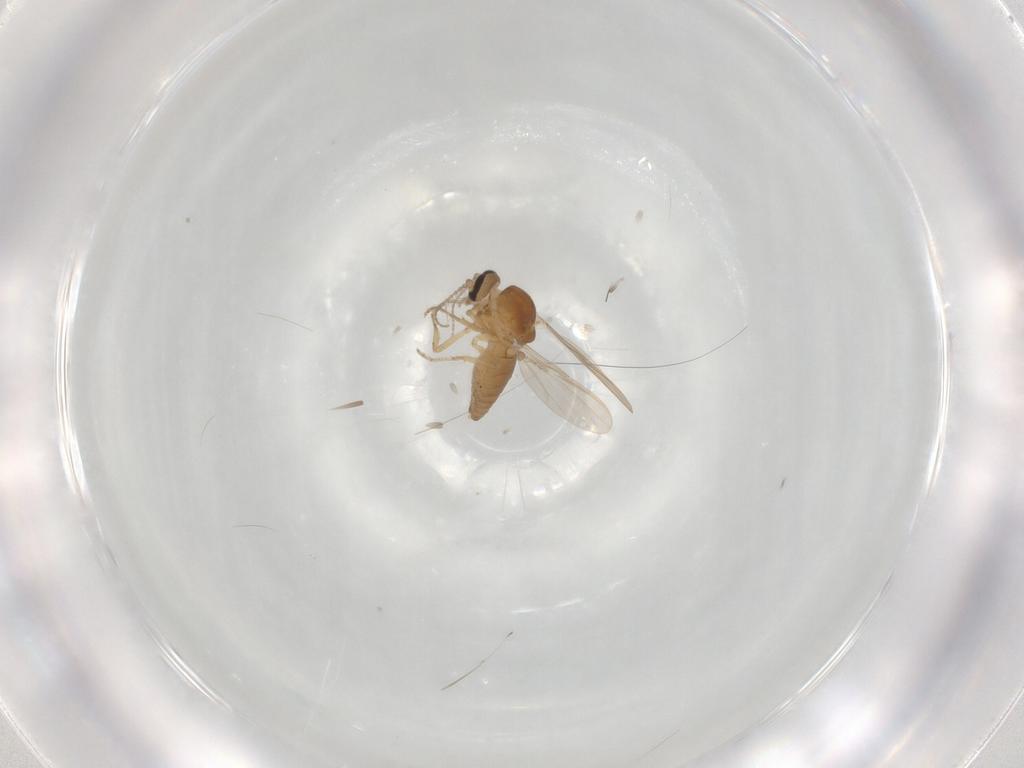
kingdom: Animalia
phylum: Arthropoda
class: Insecta
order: Diptera
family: Ceratopogonidae
